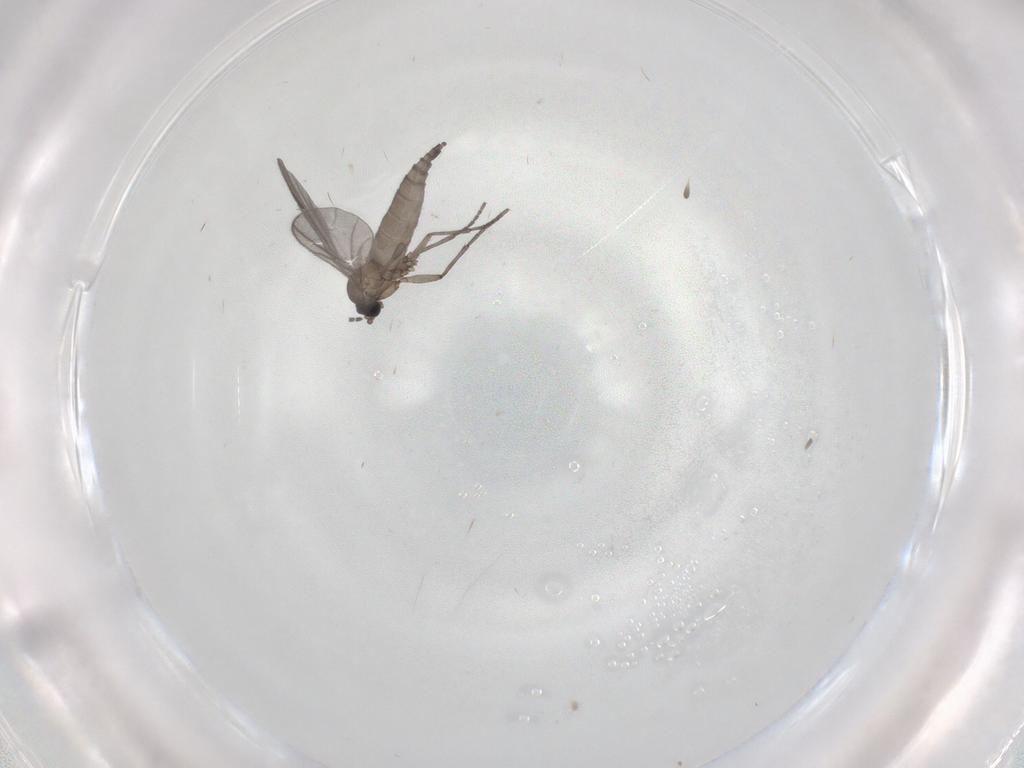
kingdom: Animalia
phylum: Arthropoda
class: Insecta
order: Diptera
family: Sciaridae
